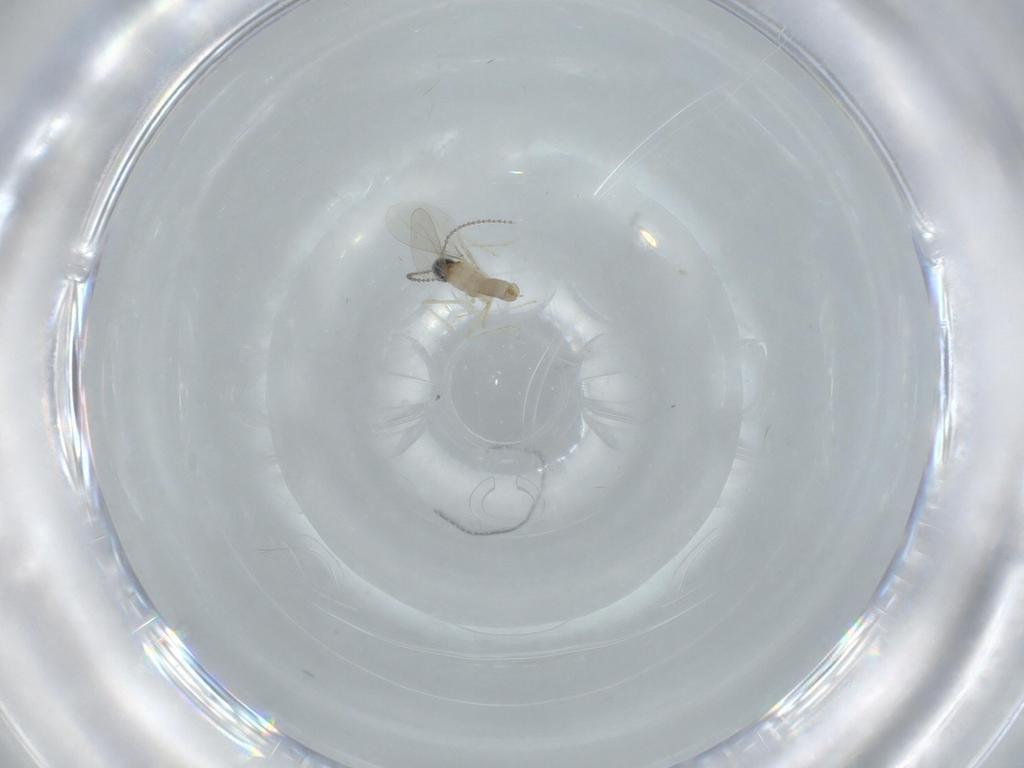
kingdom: Animalia
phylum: Arthropoda
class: Insecta
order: Diptera
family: Cecidomyiidae
